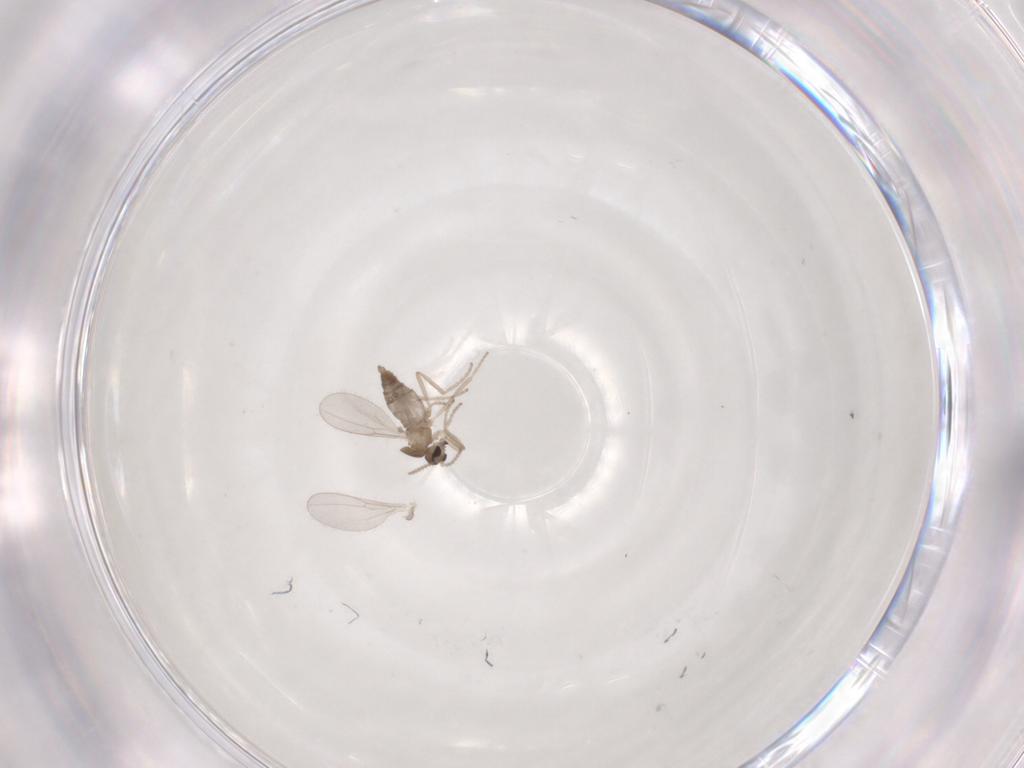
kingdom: Animalia
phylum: Arthropoda
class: Insecta
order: Diptera
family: Cecidomyiidae
